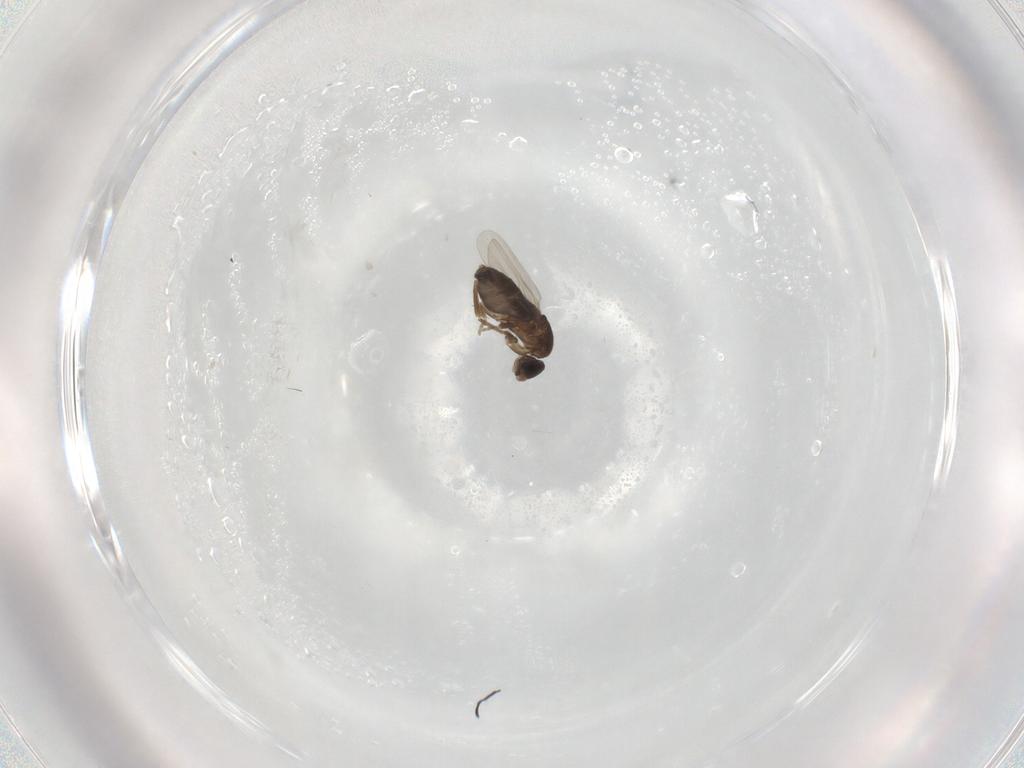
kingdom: Animalia
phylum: Arthropoda
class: Insecta
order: Diptera
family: Phoridae
